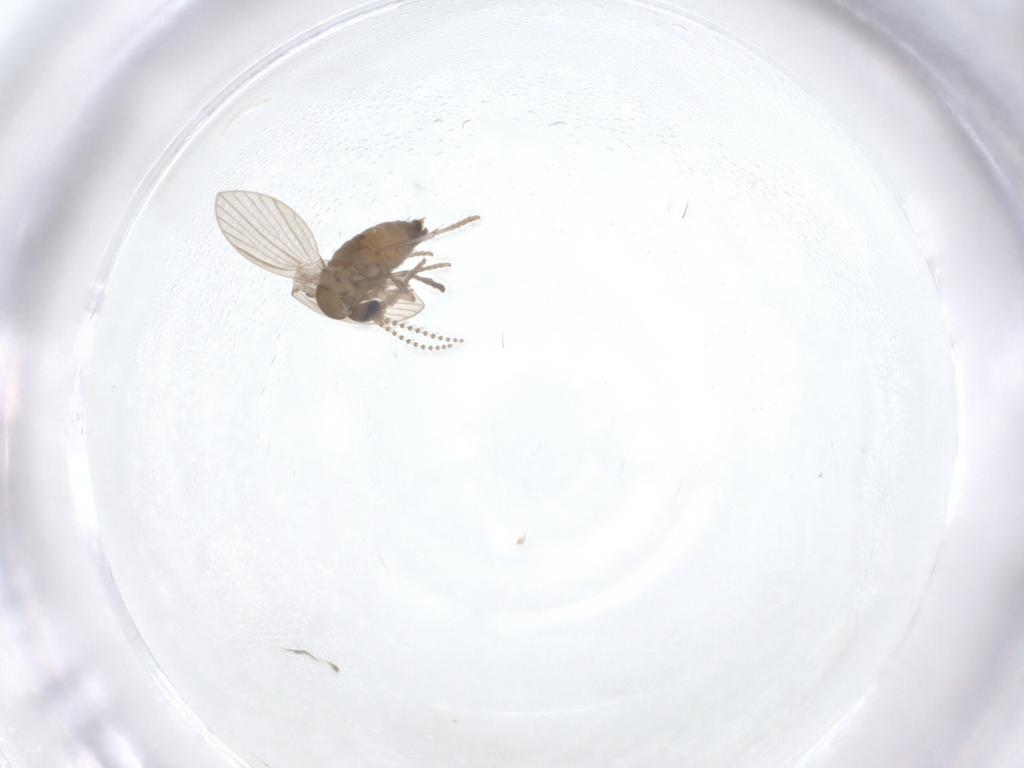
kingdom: Animalia
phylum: Arthropoda
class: Insecta
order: Diptera
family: Psychodidae
